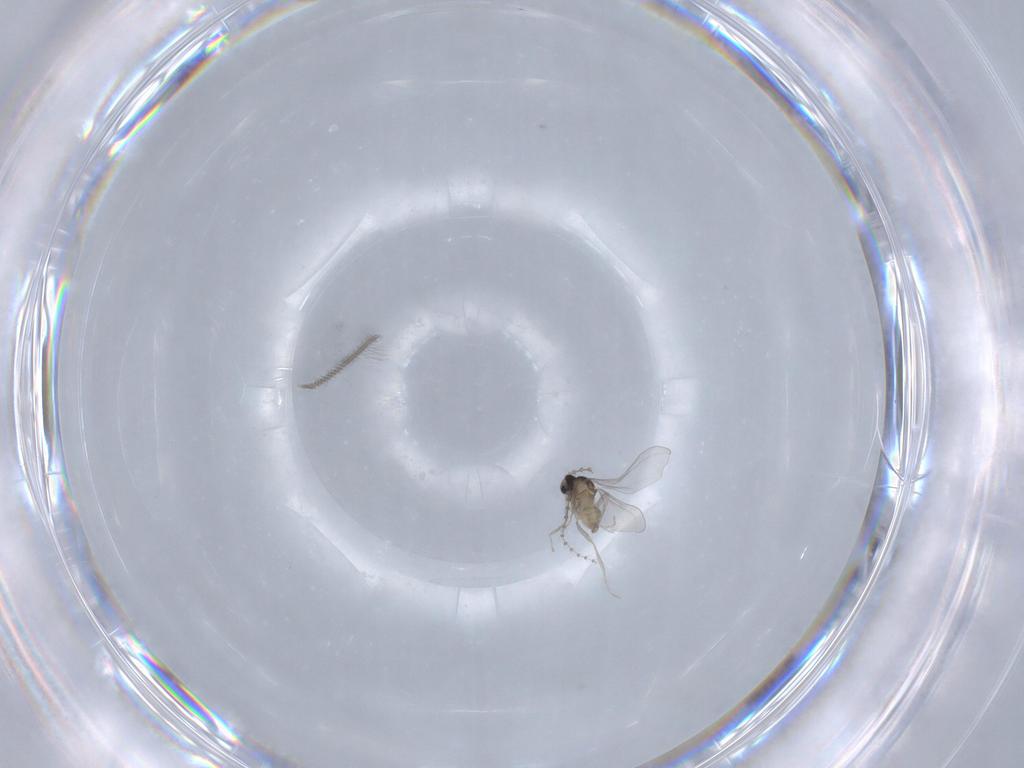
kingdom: Animalia
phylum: Arthropoda
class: Insecta
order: Diptera
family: Cecidomyiidae
